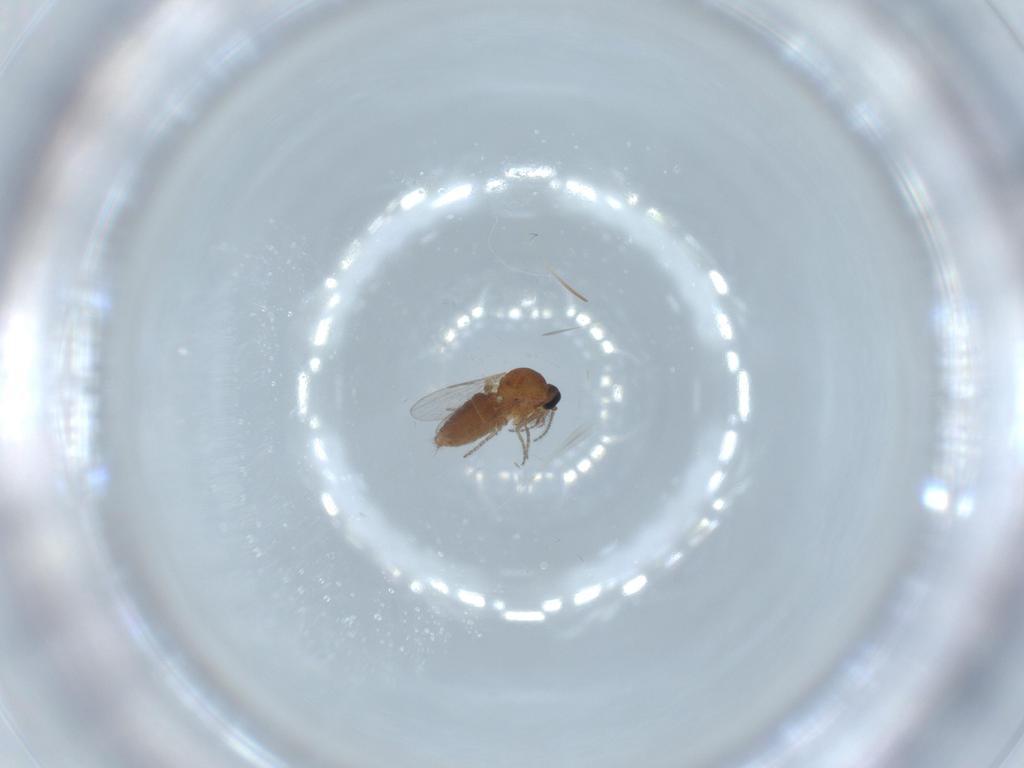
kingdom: Animalia
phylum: Arthropoda
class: Insecta
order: Diptera
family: Ceratopogonidae
